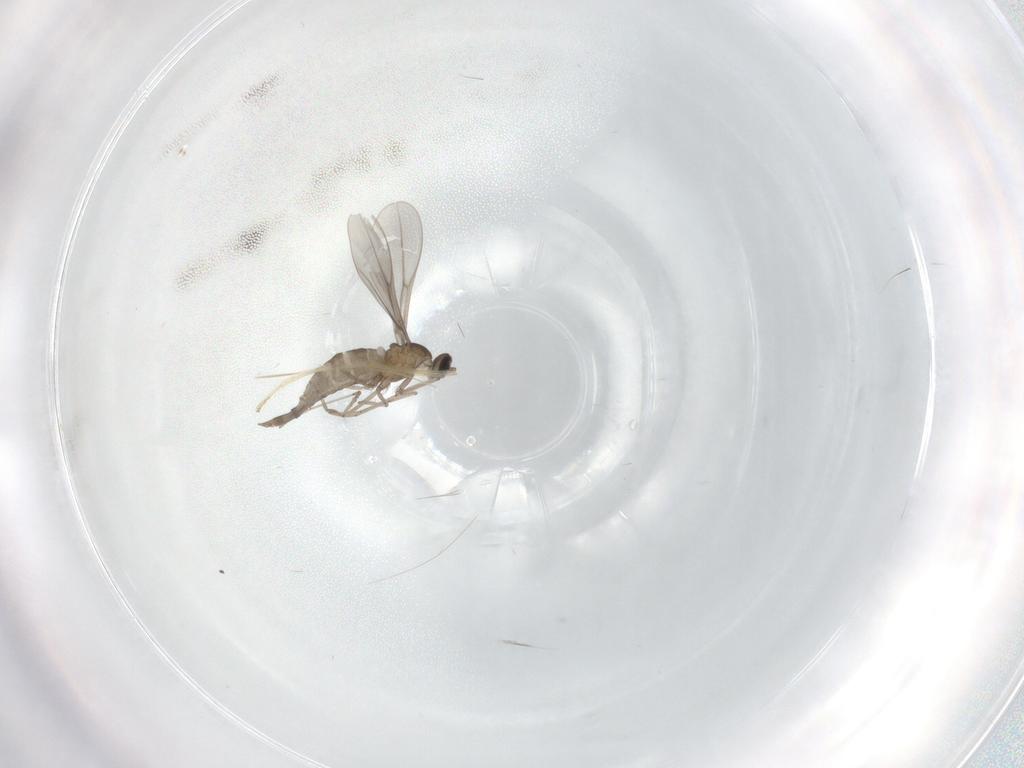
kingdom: Animalia
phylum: Arthropoda
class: Insecta
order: Diptera
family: Cecidomyiidae
